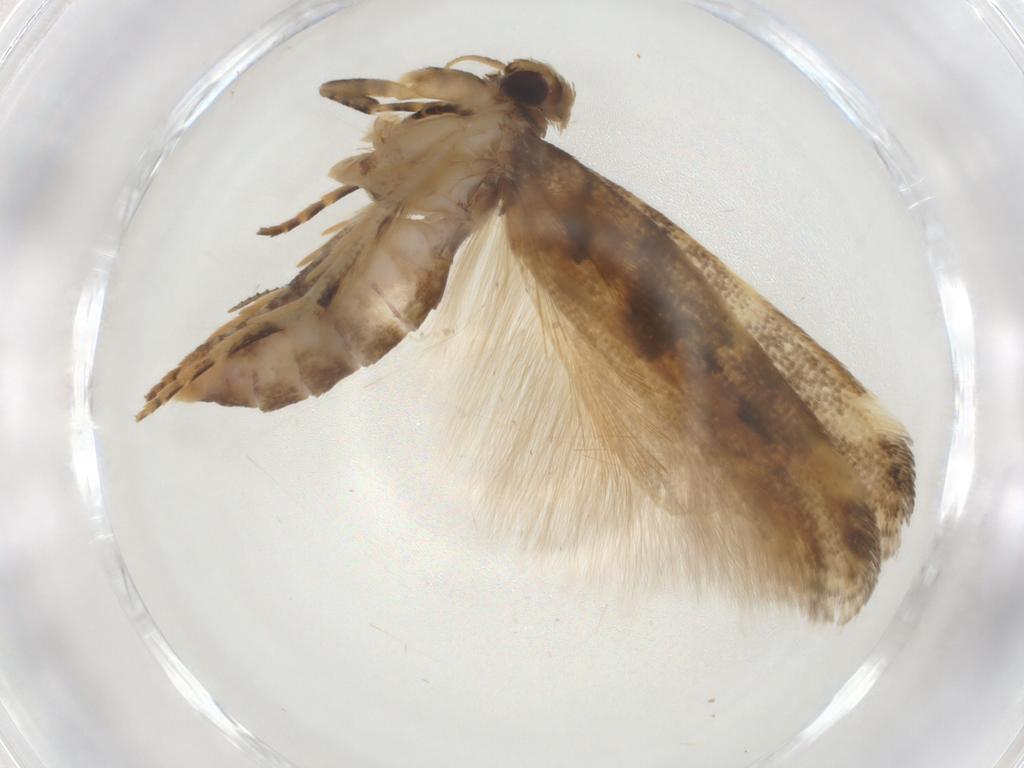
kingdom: Animalia
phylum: Arthropoda
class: Insecta
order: Lepidoptera
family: Gelechiidae
